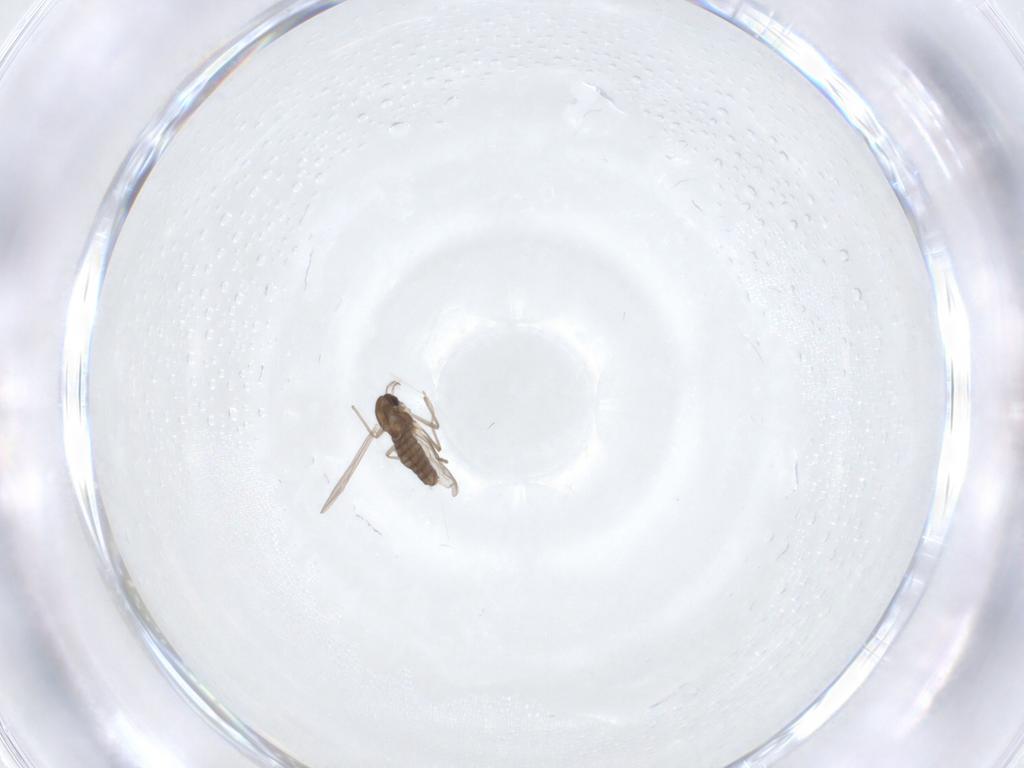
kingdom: Animalia
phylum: Arthropoda
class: Insecta
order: Diptera
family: Chironomidae
